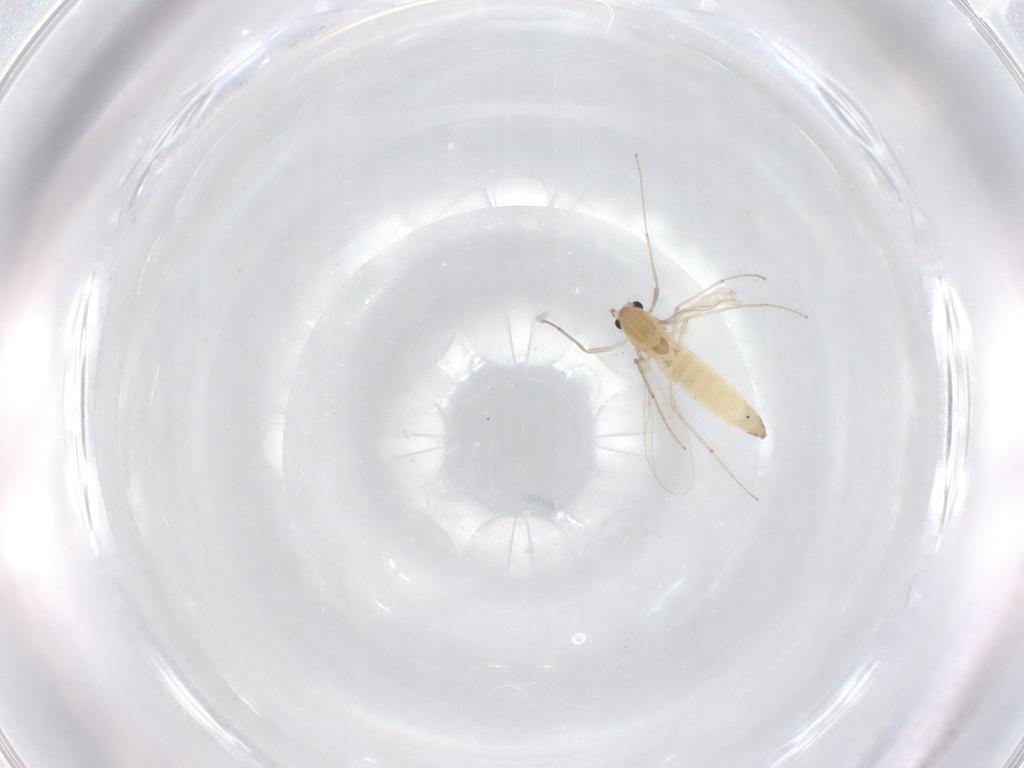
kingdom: Animalia
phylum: Arthropoda
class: Insecta
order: Diptera
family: Chironomidae
